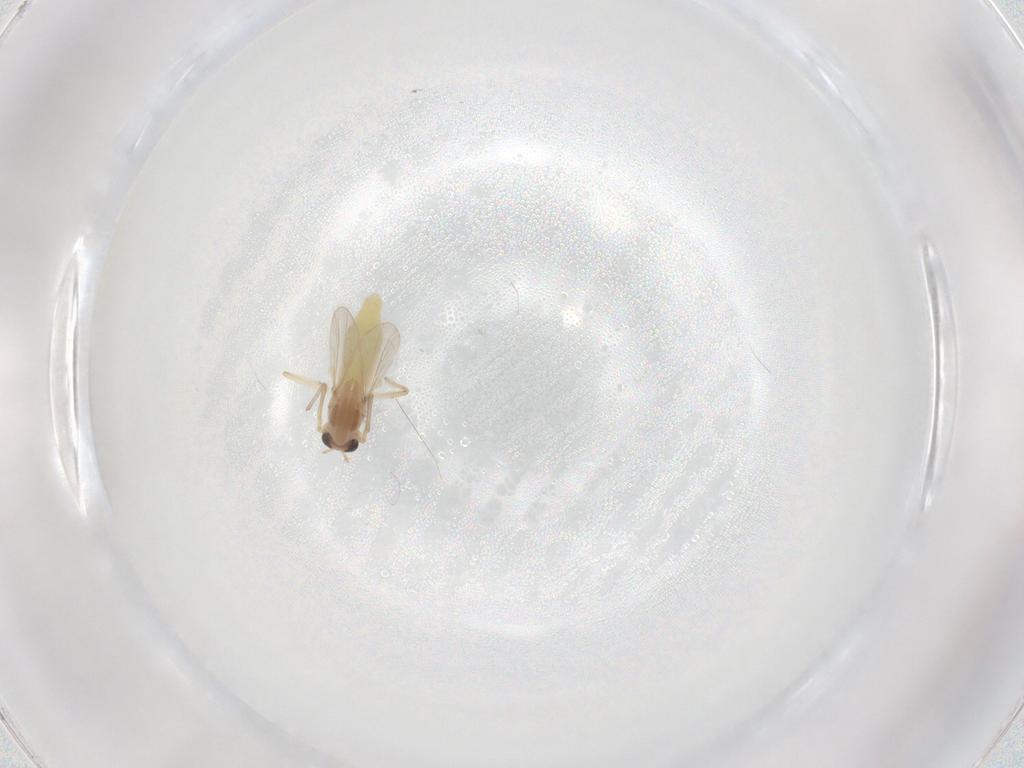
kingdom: Animalia
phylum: Arthropoda
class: Insecta
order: Diptera
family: Chironomidae
